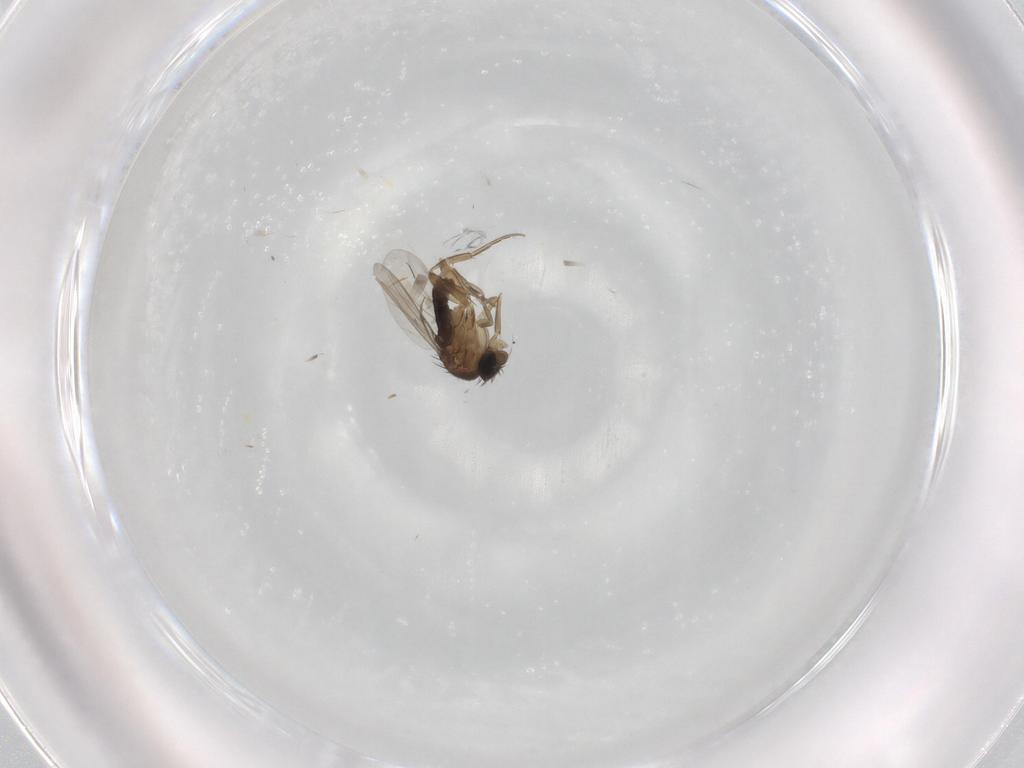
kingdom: Animalia
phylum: Arthropoda
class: Insecta
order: Diptera
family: Phoridae
